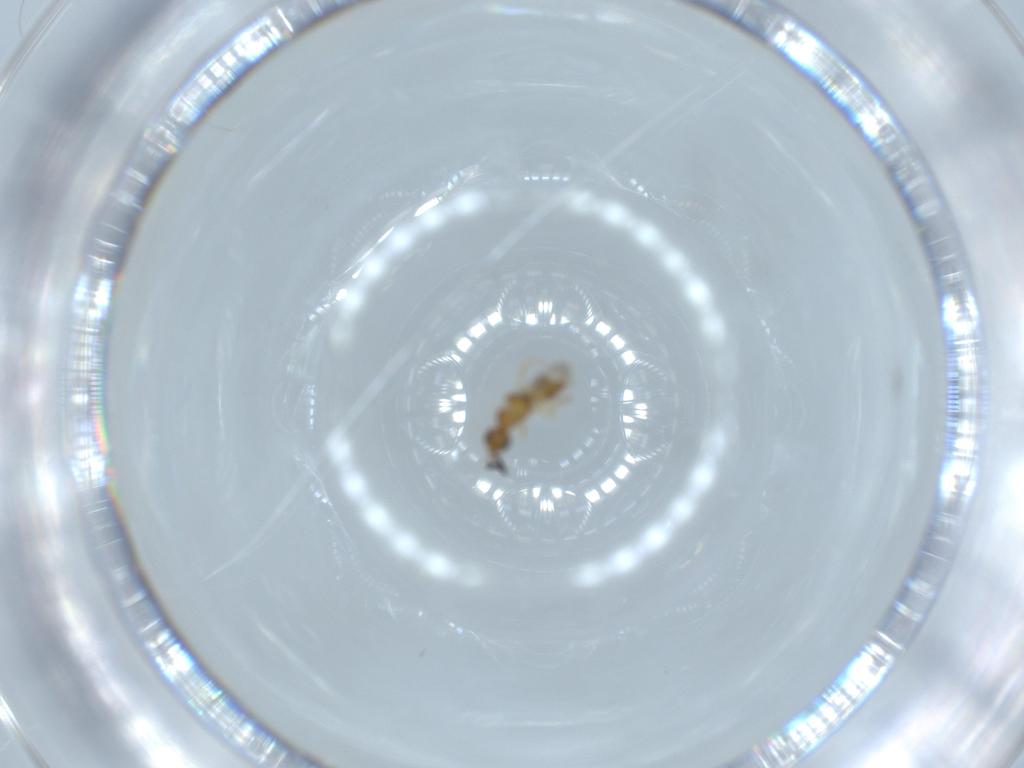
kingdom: Animalia
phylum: Arthropoda
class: Insecta
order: Hymenoptera
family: Ceraphronidae
